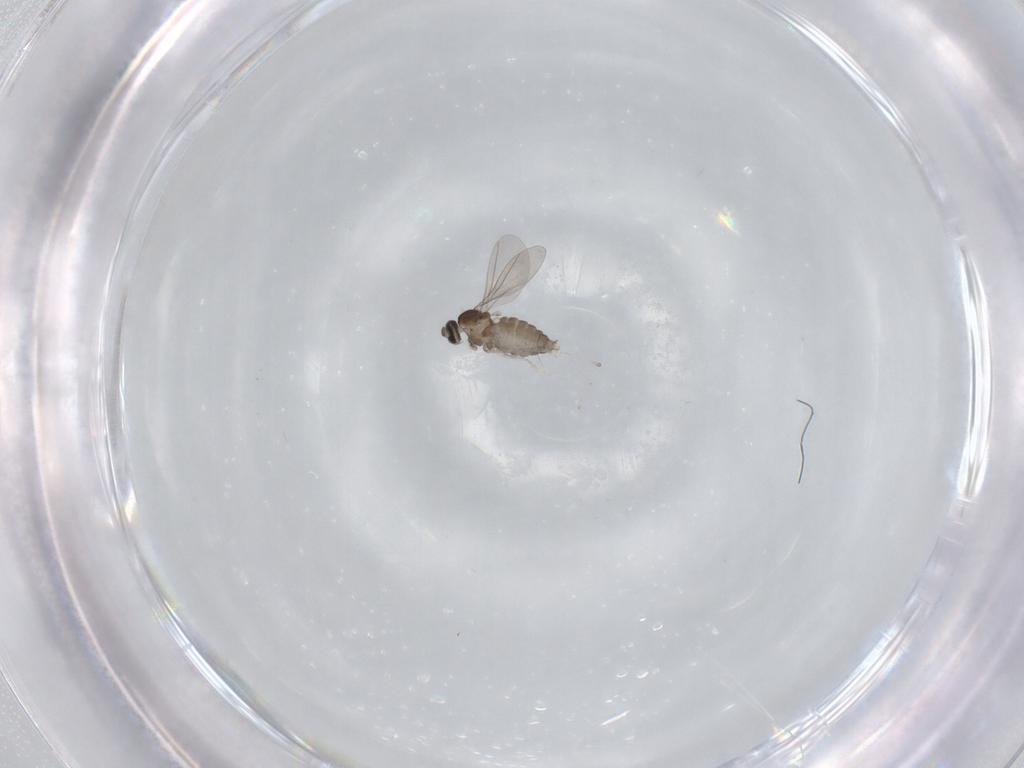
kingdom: Animalia
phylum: Arthropoda
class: Insecta
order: Diptera
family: Cecidomyiidae
